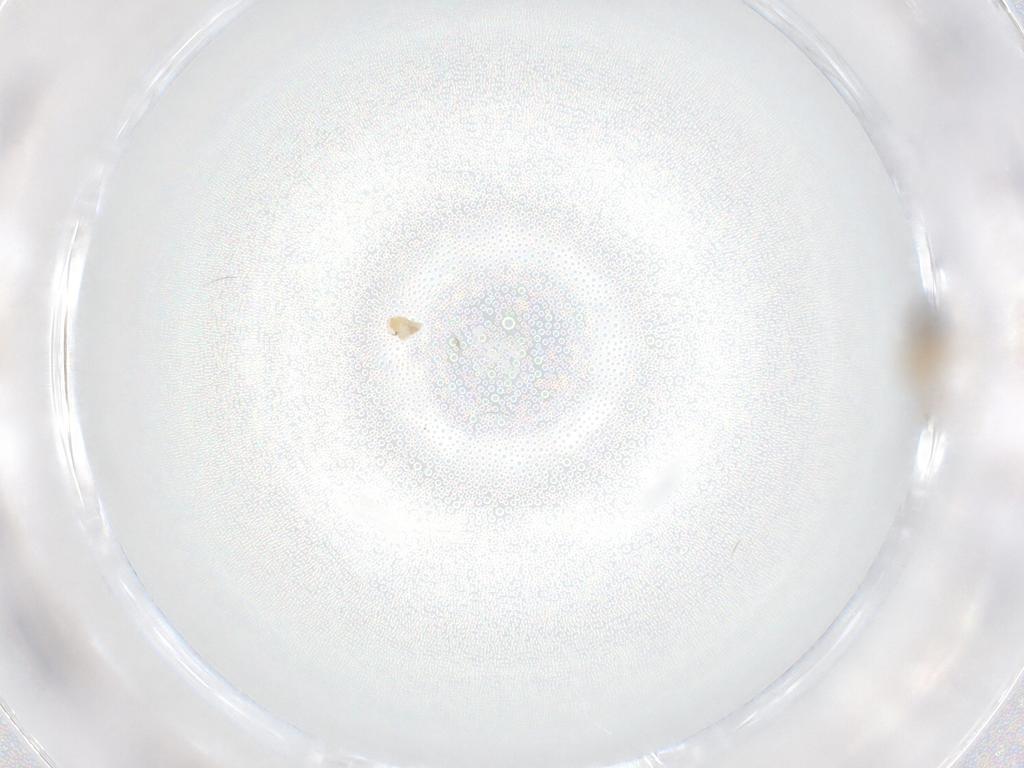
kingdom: Animalia
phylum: Arthropoda
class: Insecta
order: Diptera
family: Cecidomyiidae
